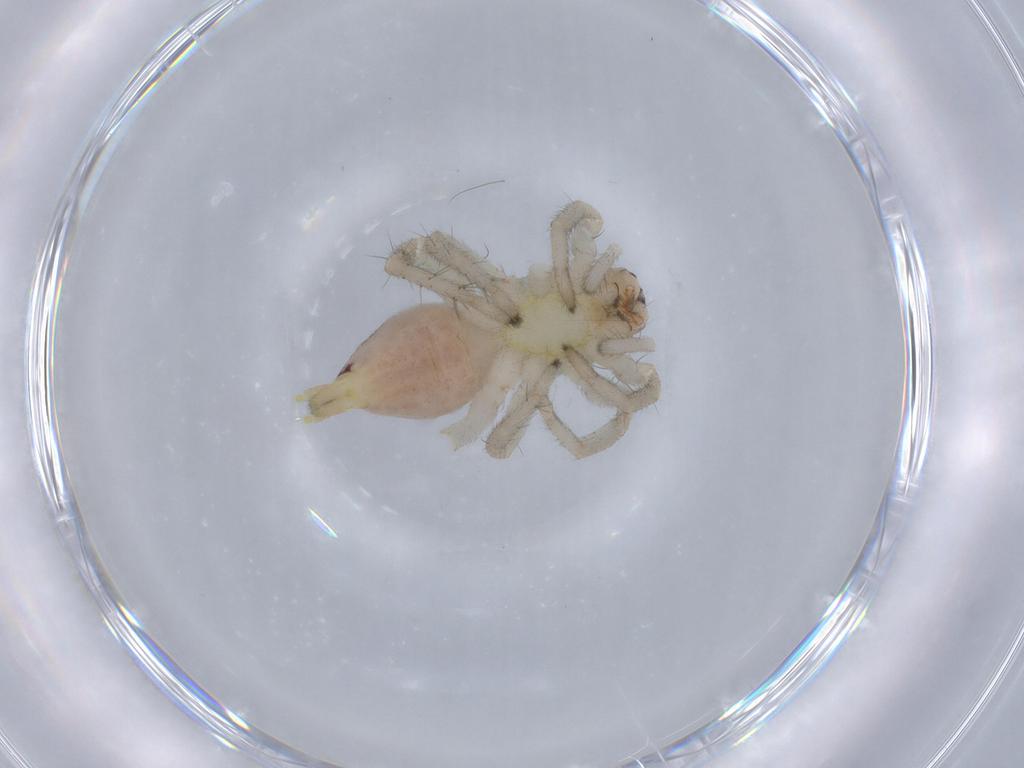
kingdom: Animalia
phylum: Arthropoda
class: Arachnida
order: Araneae
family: Clubionidae
